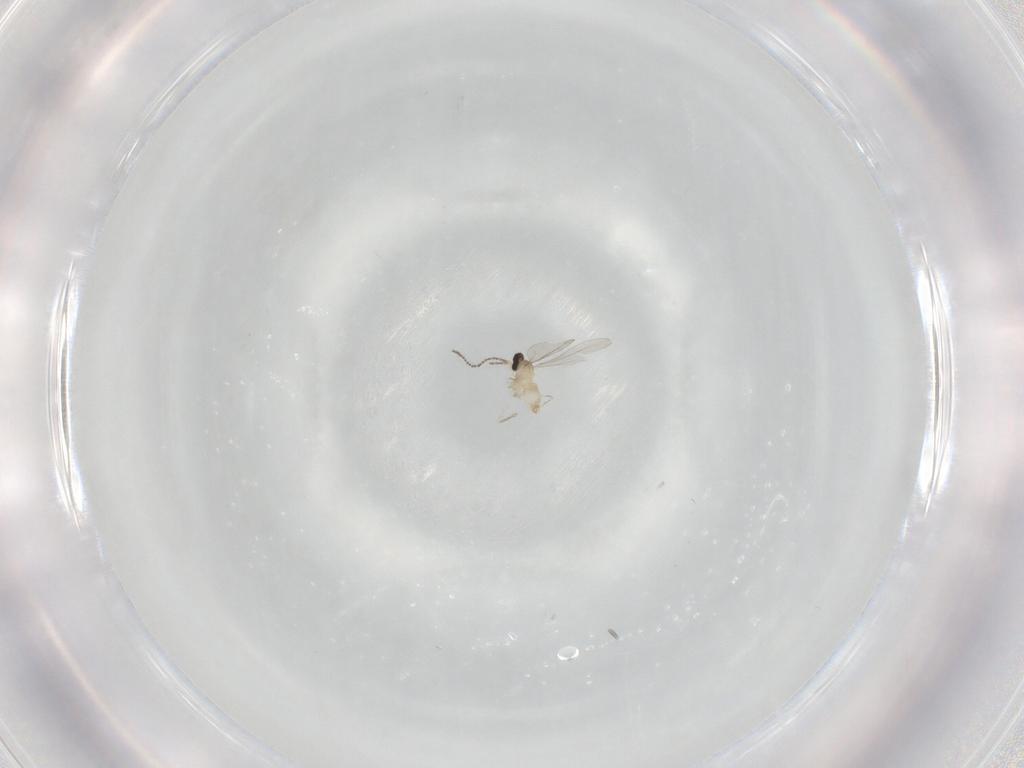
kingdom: Animalia
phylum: Arthropoda
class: Insecta
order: Diptera
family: Cecidomyiidae
